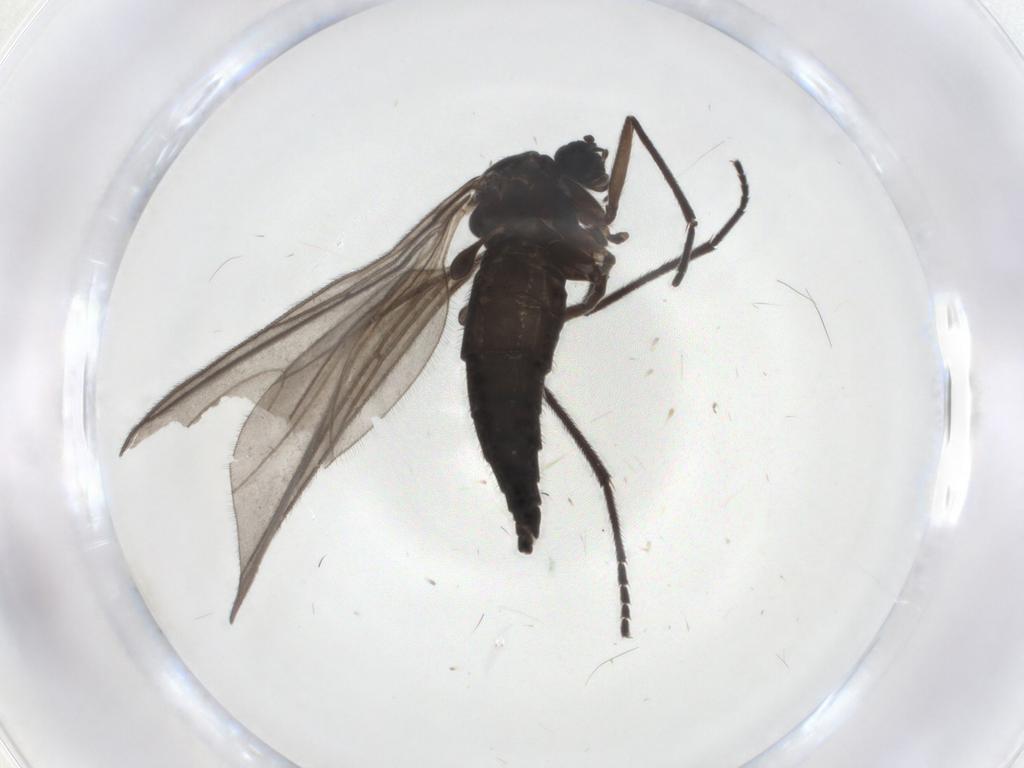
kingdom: Animalia
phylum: Arthropoda
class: Insecta
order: Diptera
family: Sciaridae
